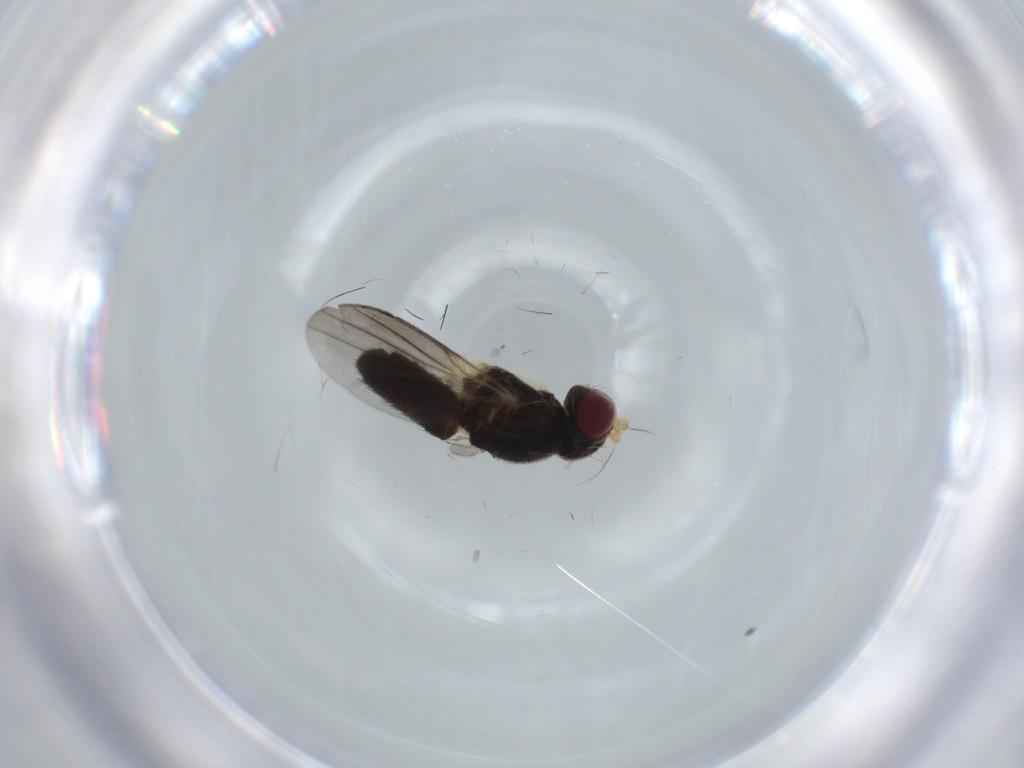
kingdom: Animalia
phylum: Arthropoda
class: Insecta
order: Diptera
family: Clusiidae
